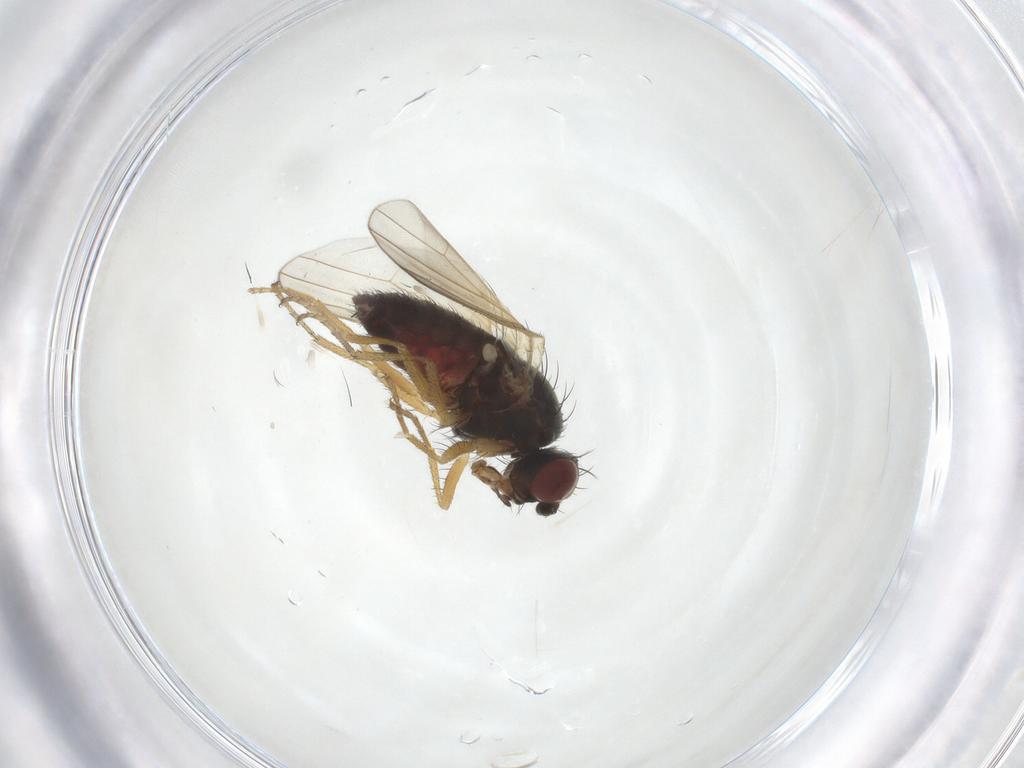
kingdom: Animalia
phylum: Arthropoda
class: Insecta
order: Diptera
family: Heleomyzidae
